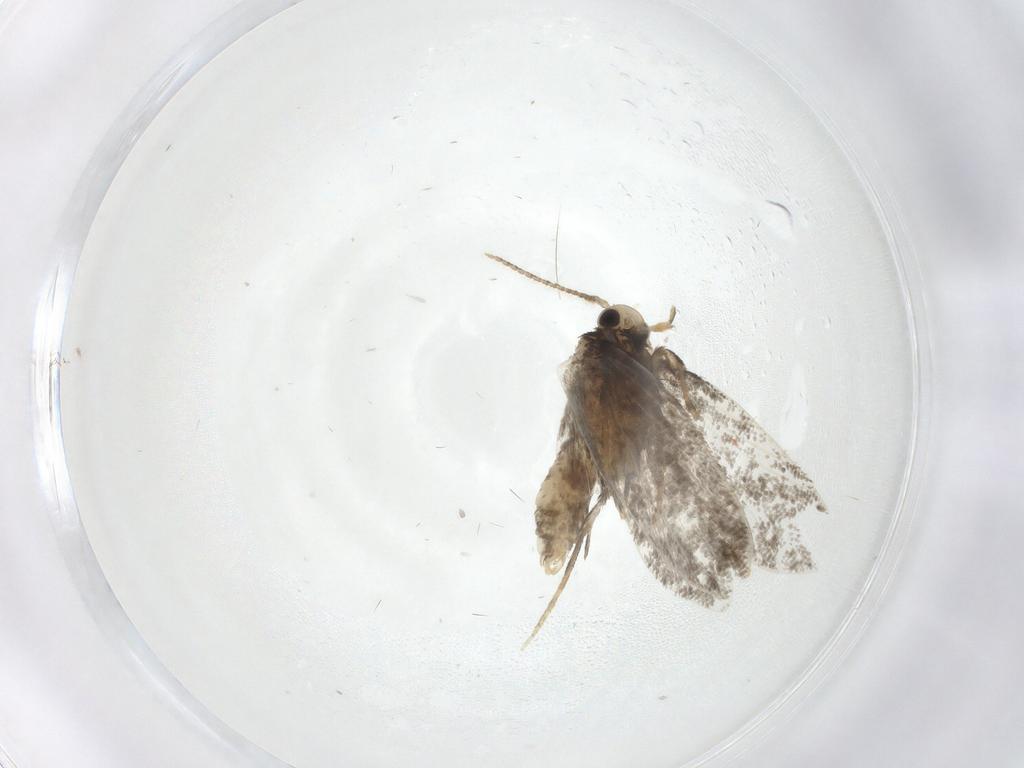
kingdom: Animalia
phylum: Arthropoda
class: Insecta
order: Lepidoptera
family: Psychidae
